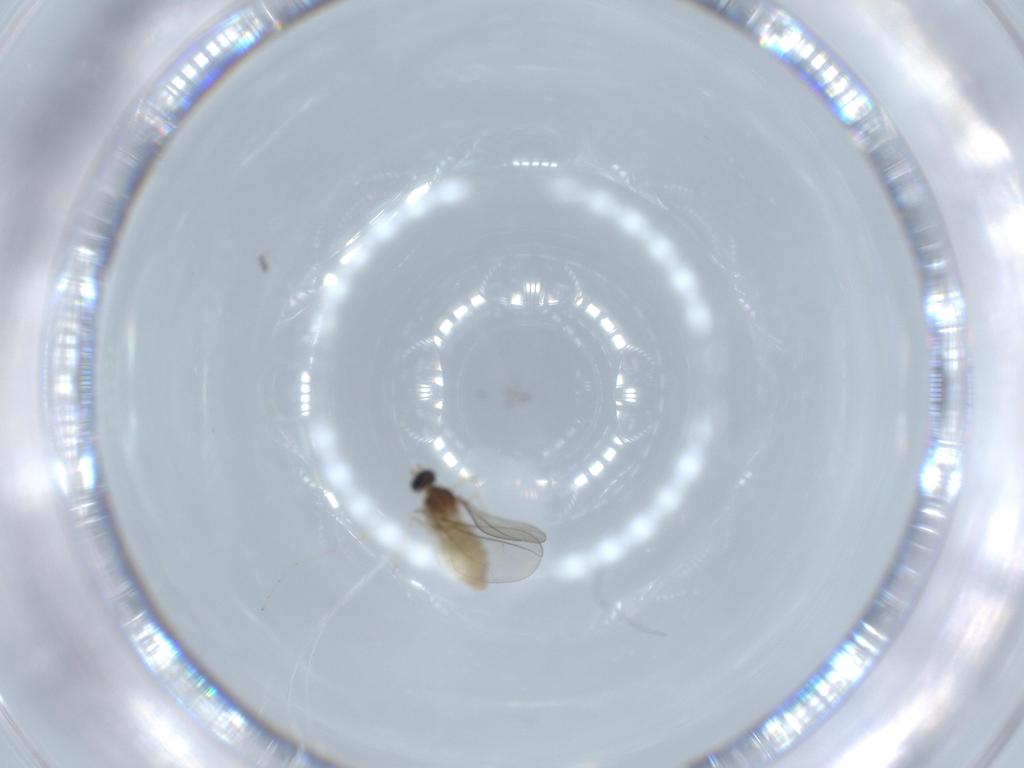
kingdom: Animalia
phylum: Arthropoda
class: Insecta
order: Diptera
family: Cecidomyiidae
